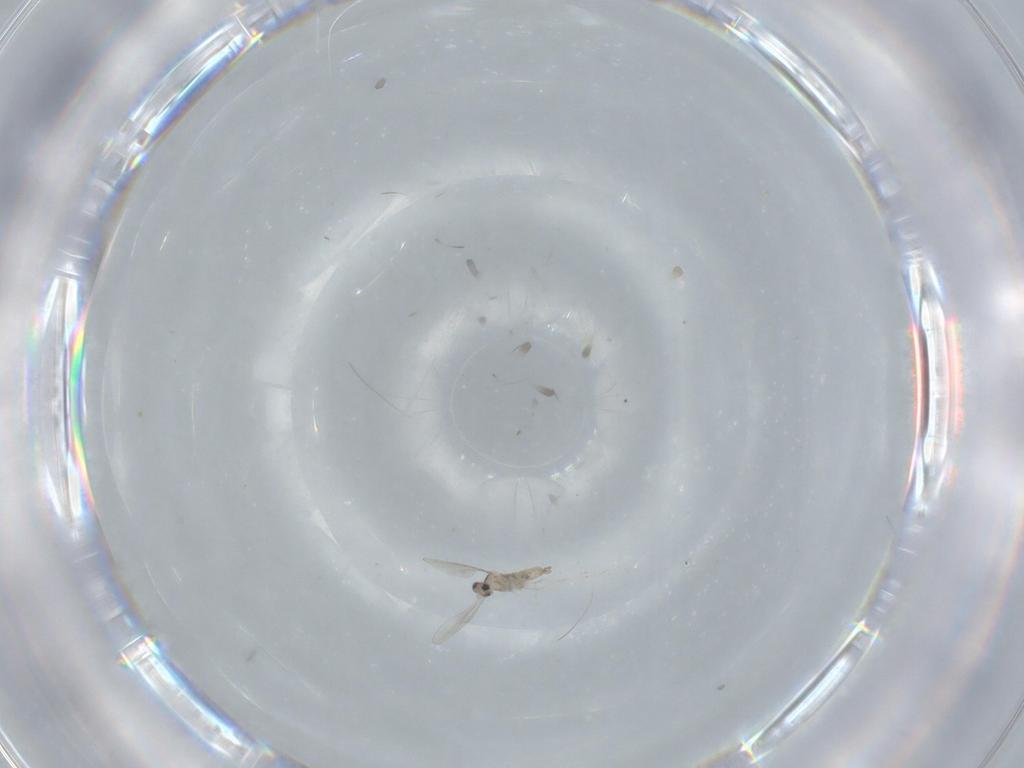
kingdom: Animalia
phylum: Arthropoda
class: Insecta
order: Diptera
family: Cecidomyiidae
